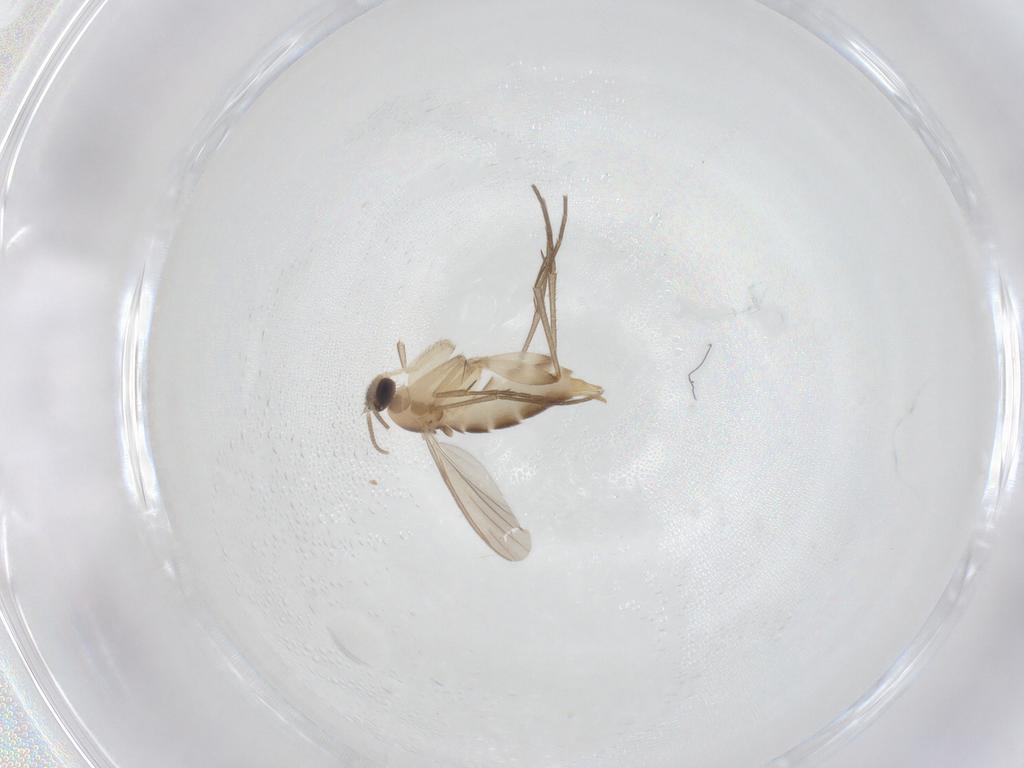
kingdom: Animalia
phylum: Arthropoda
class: Insecta
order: Diptera
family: Mycetophilidae
